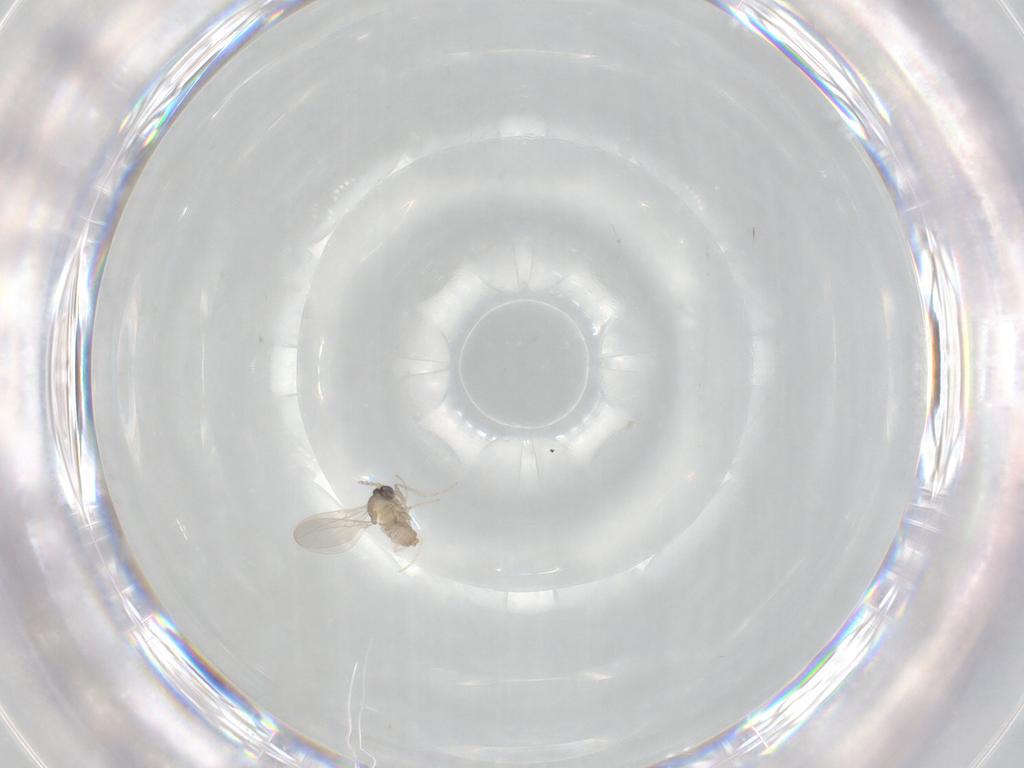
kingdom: Animalia
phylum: Arthropoda
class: Insecta
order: Diptera
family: Cecidomyiidae
